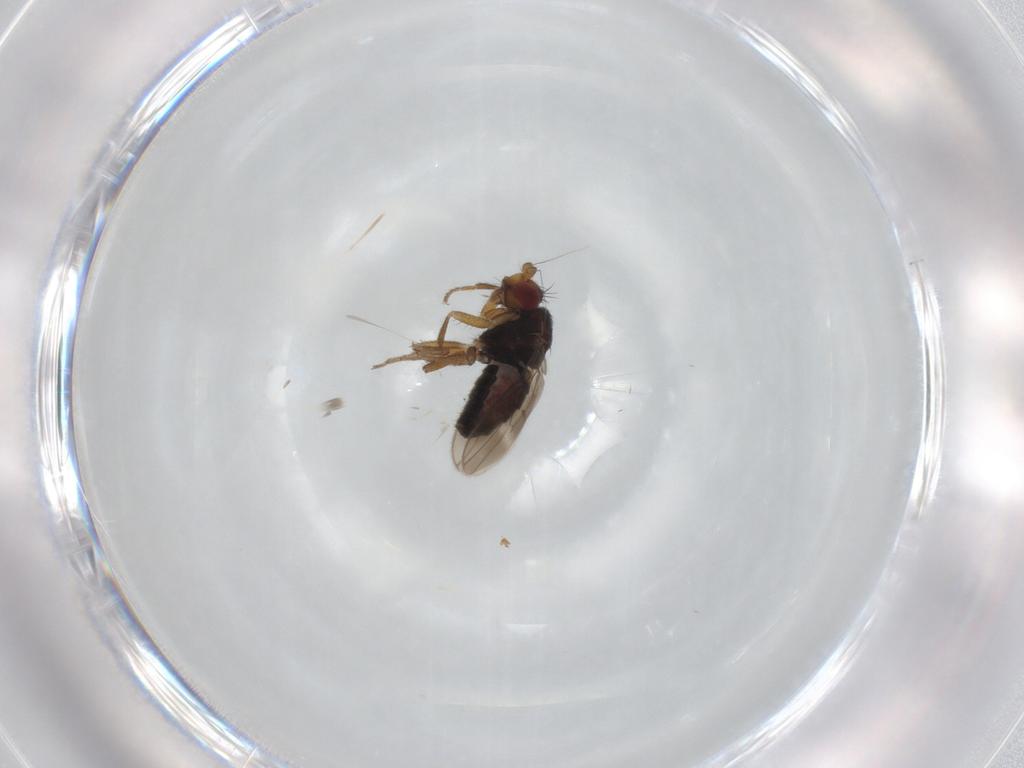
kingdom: Animalia
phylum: Arthropoda
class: Insecta
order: Diptera
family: Sphaeroceridae
